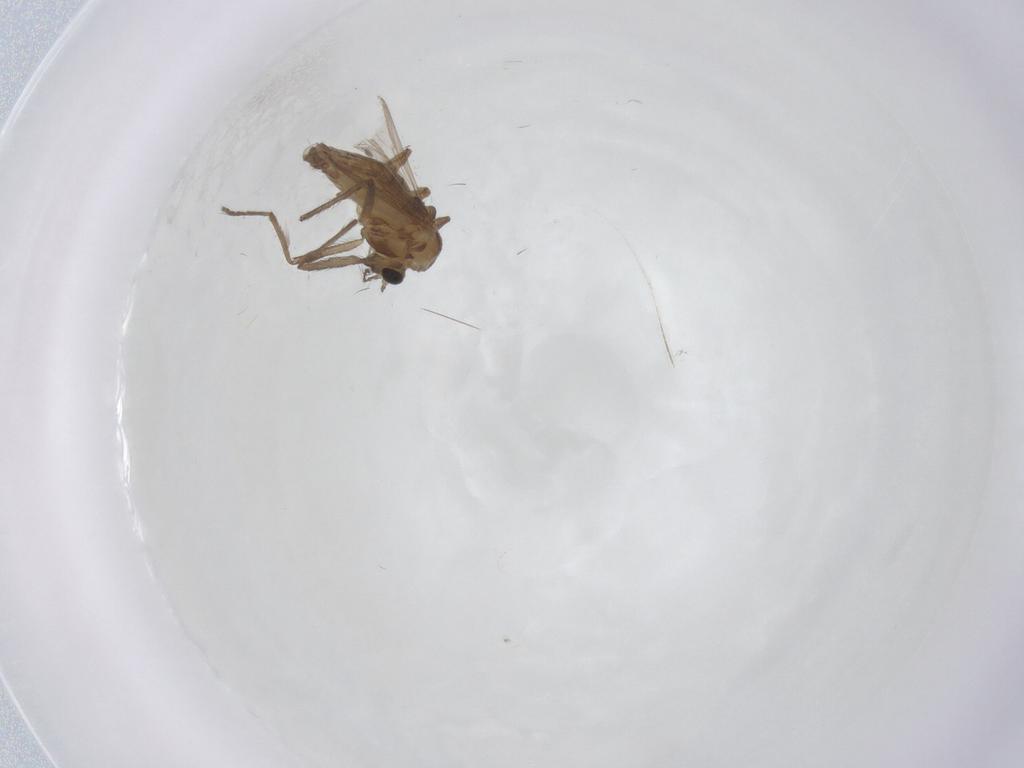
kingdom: Animalia
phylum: Arthropoda
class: Insecta
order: Diptera
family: Chironomidae
